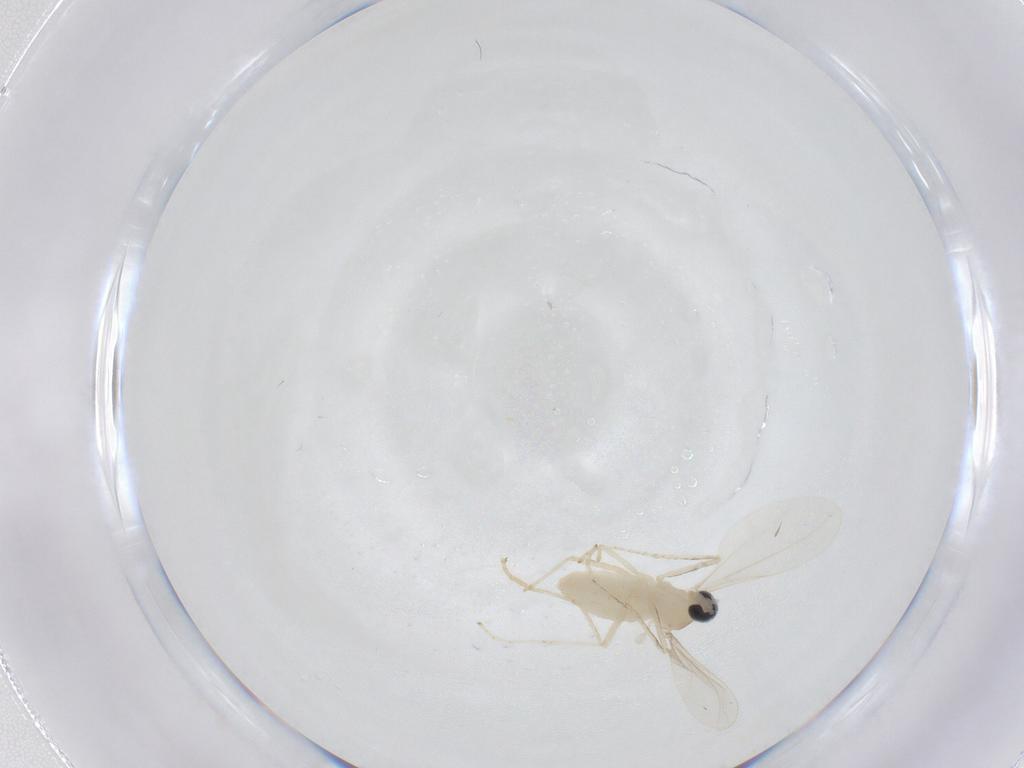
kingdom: Animalia
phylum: Arthropoda
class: Insecta
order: Diptera
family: Cecidomyiidae
